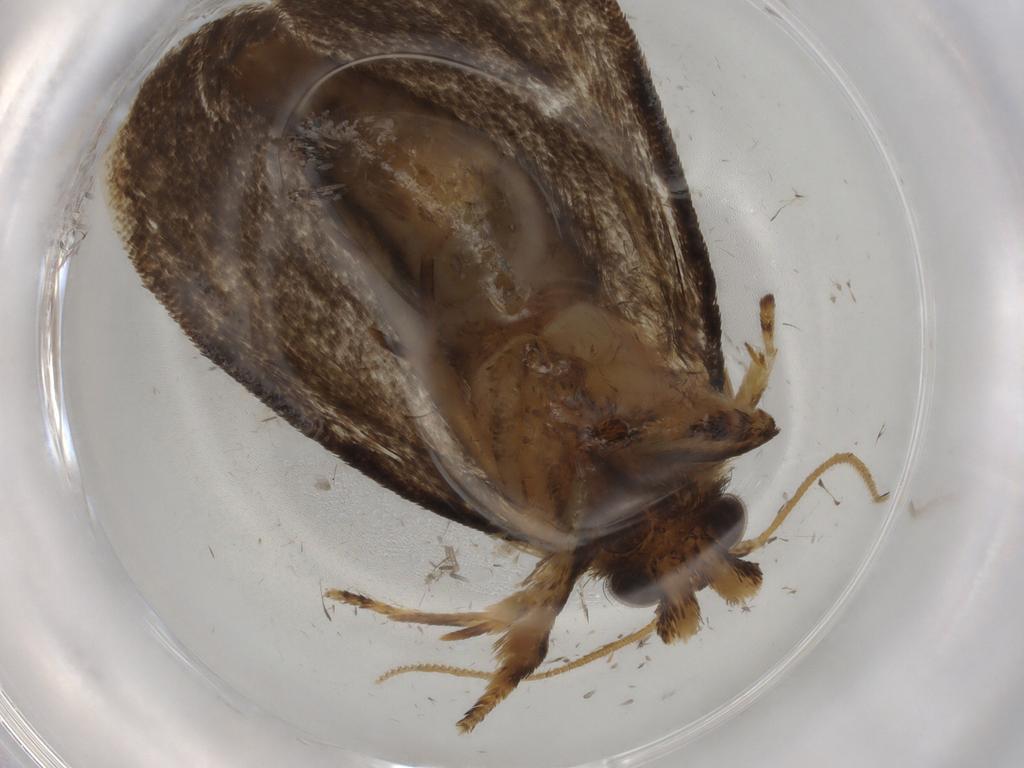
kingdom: Animalia
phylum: Arthropoda
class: Insecta
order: Lepidoptera
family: Tineidae
